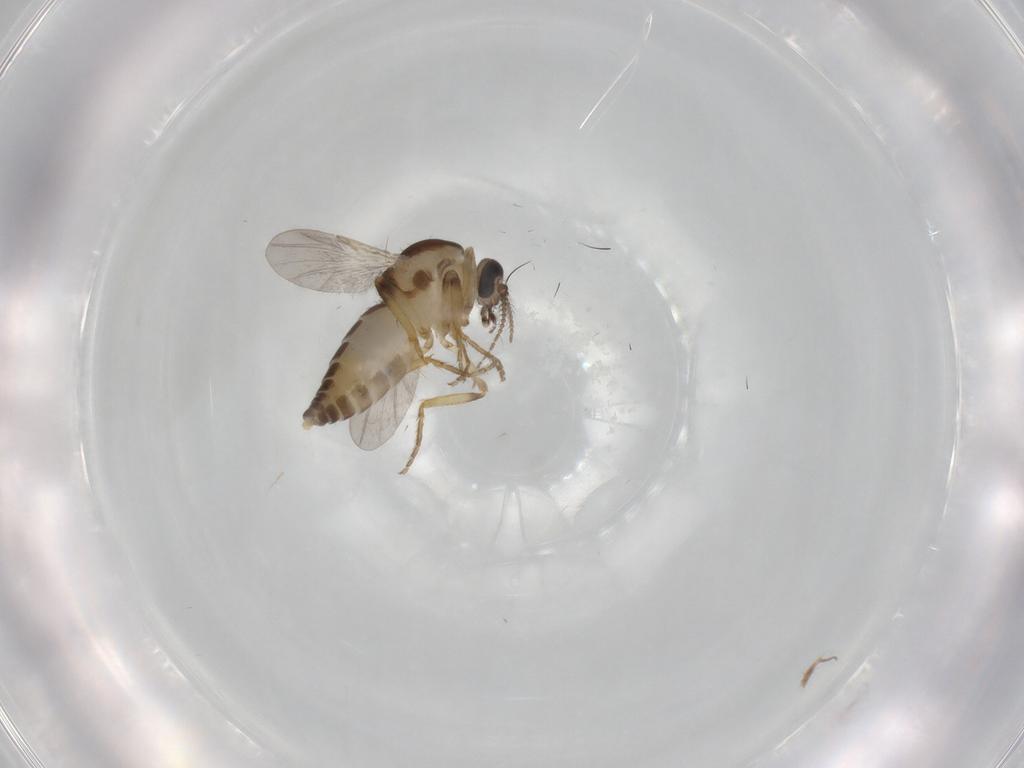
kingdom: Animalia
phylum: Arthropoda
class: Insecta
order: Diptera
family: Ceratopogonidae
